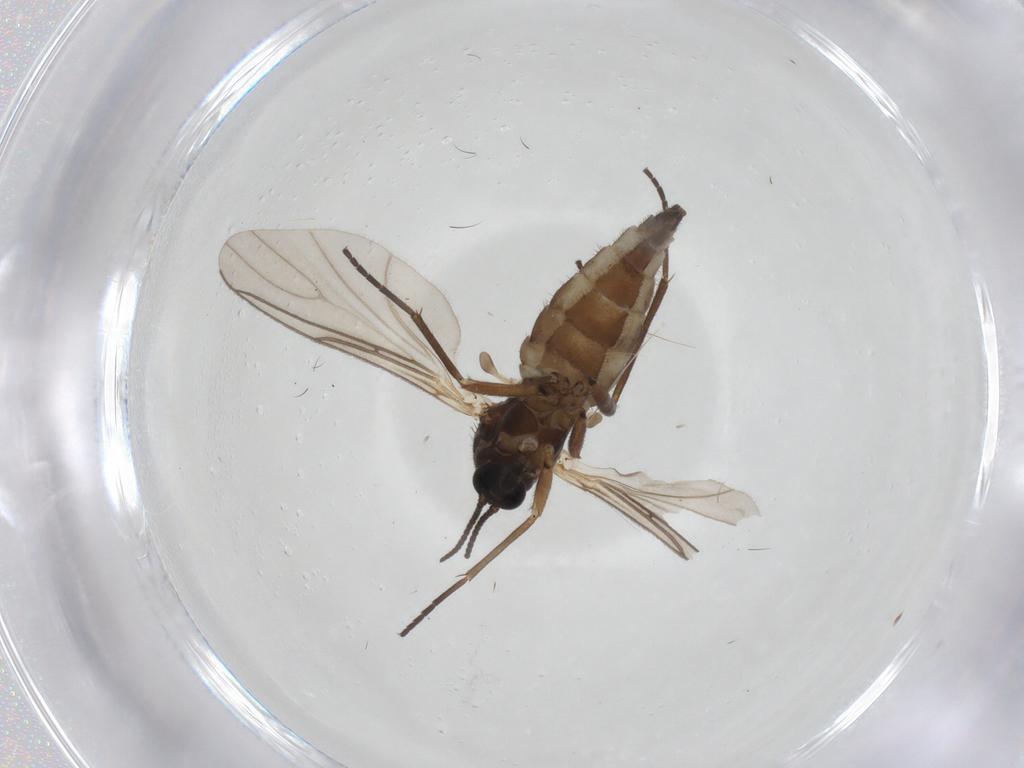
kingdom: Animalia
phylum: Arthropoda
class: Insecta
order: Diptera
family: Sciaridae
